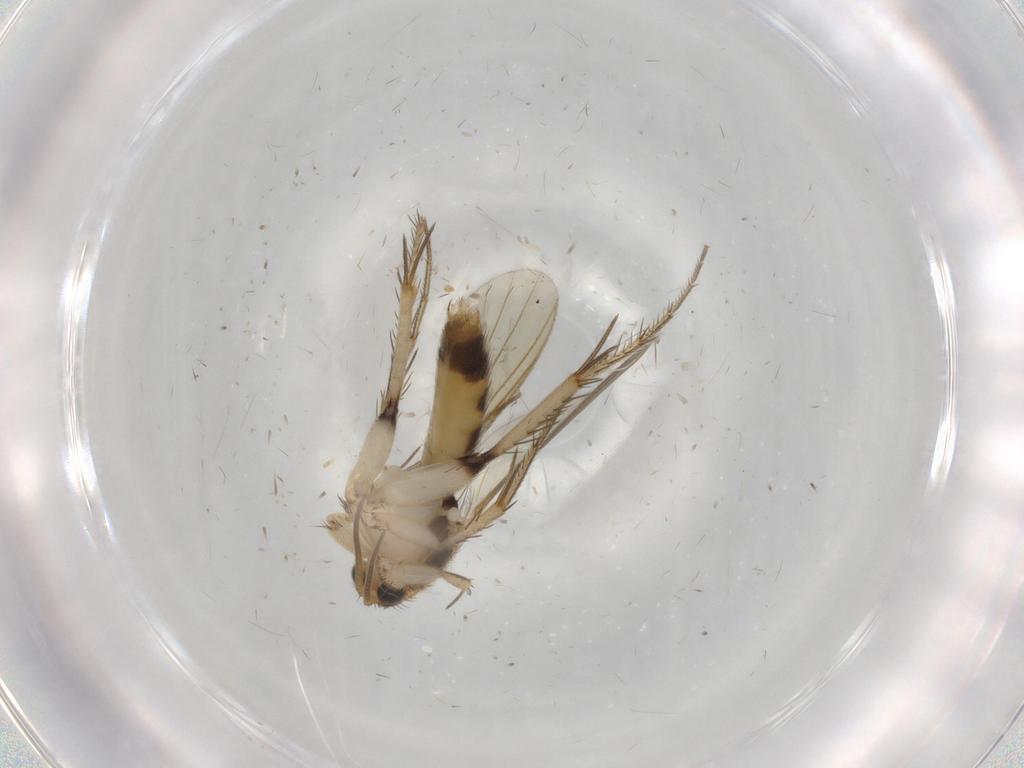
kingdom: Animalia
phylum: Arthropoda
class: Insecta
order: Diptera
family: Mycetophilidae
